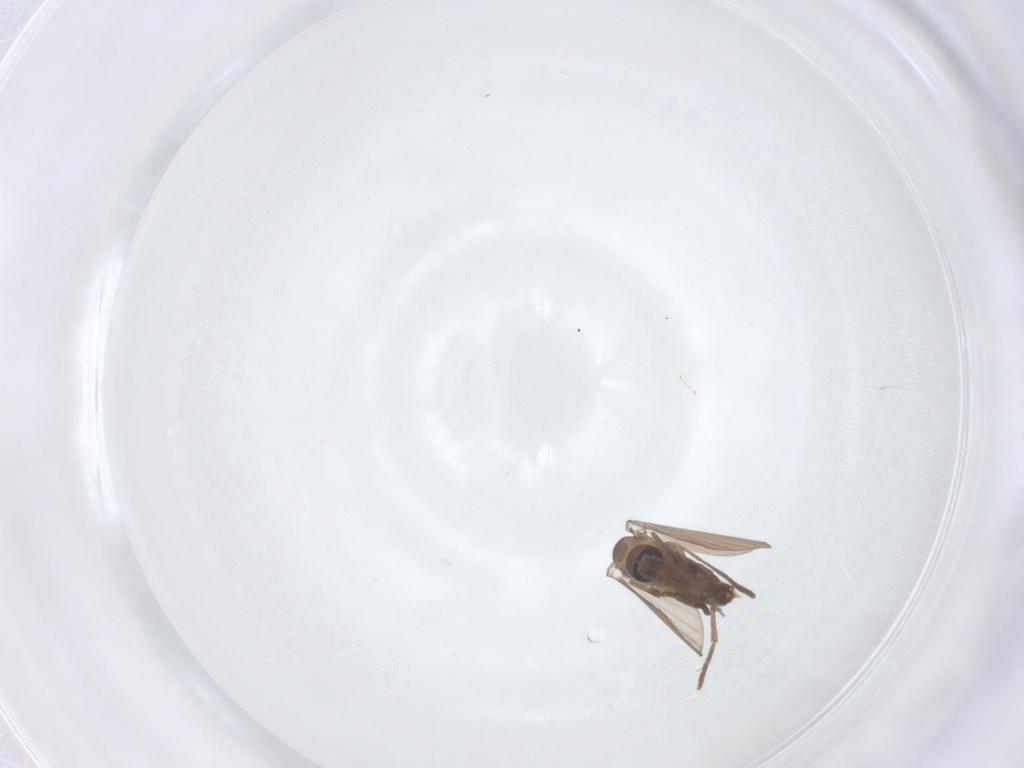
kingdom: Animalia
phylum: Arthropoda
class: Insecta
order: Diptera
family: Psychodidae
